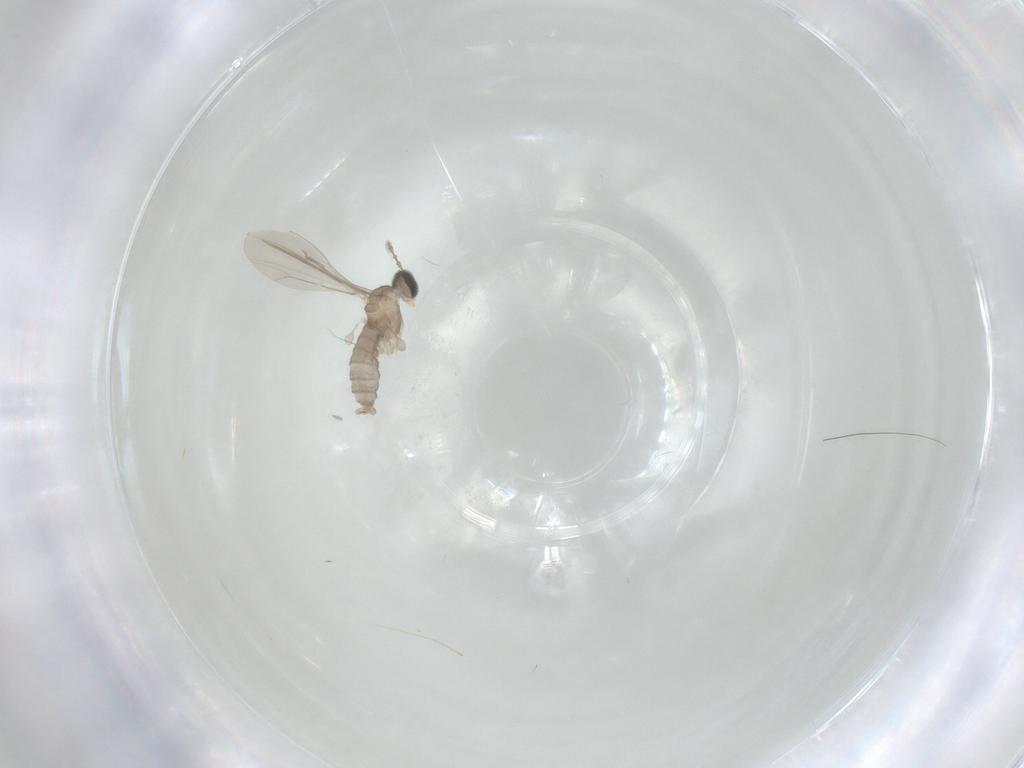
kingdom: Animalia
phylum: Arthropoda
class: Insecta
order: Diptera
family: Cecidomyiidae
